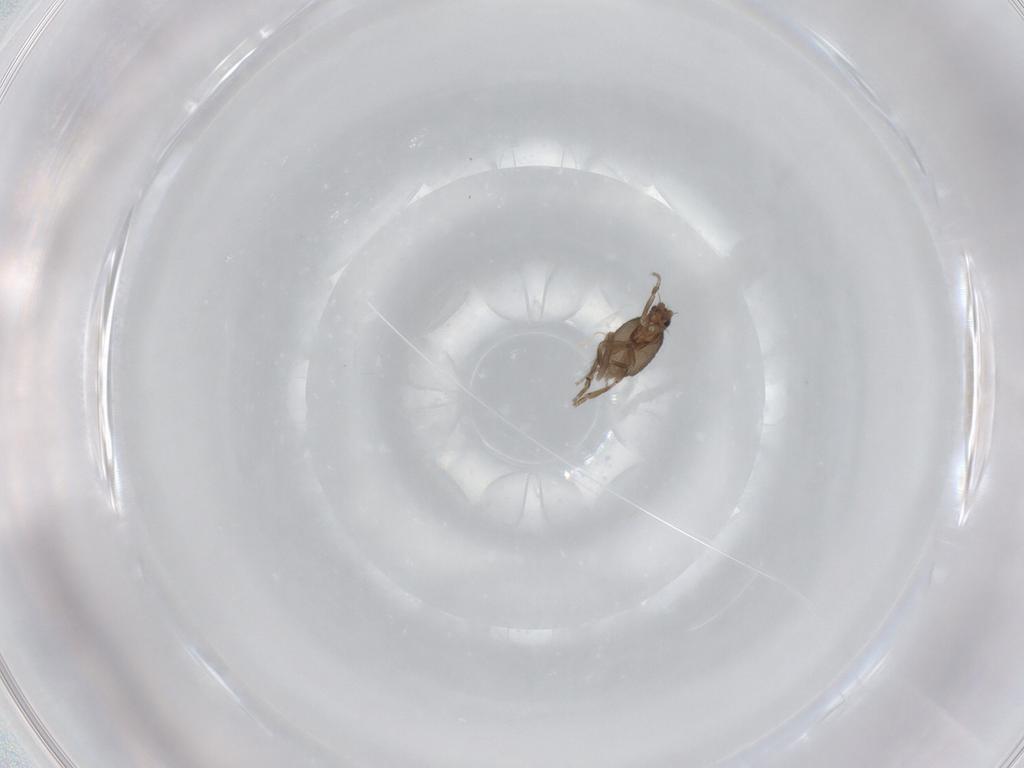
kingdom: Animalia
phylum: Arthropoda
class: Insecta
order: Diptera
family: Phoridae
